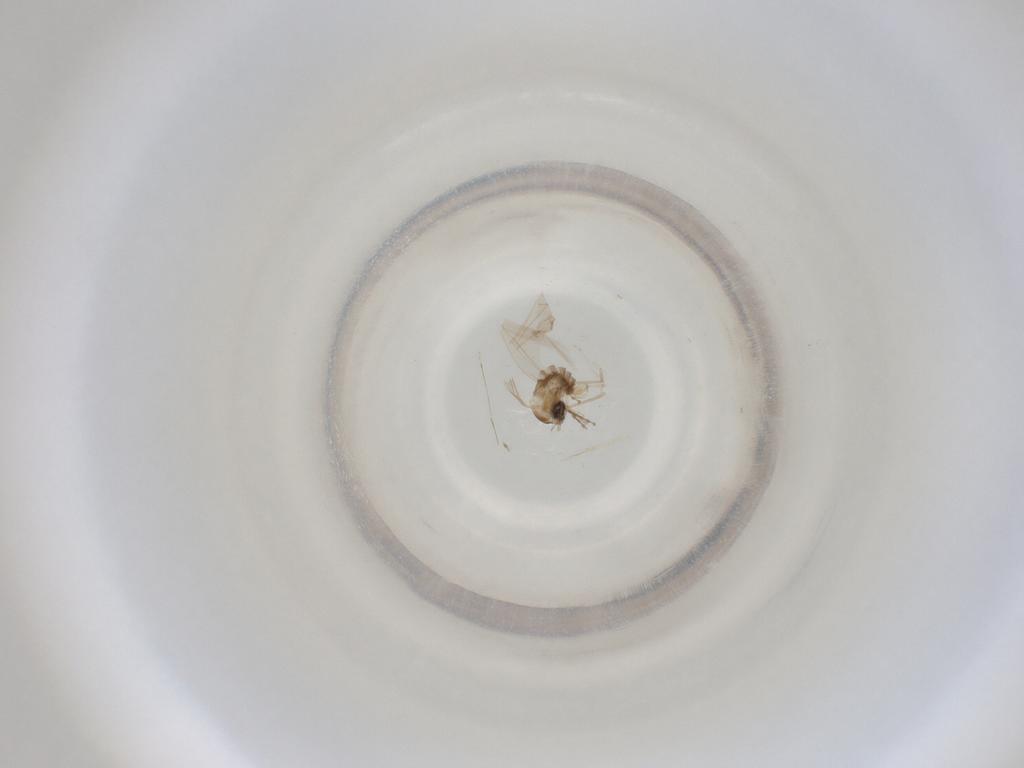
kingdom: Animalia
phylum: Arthropoda
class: Insecta
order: Diptera
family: Cecidomyiidae
